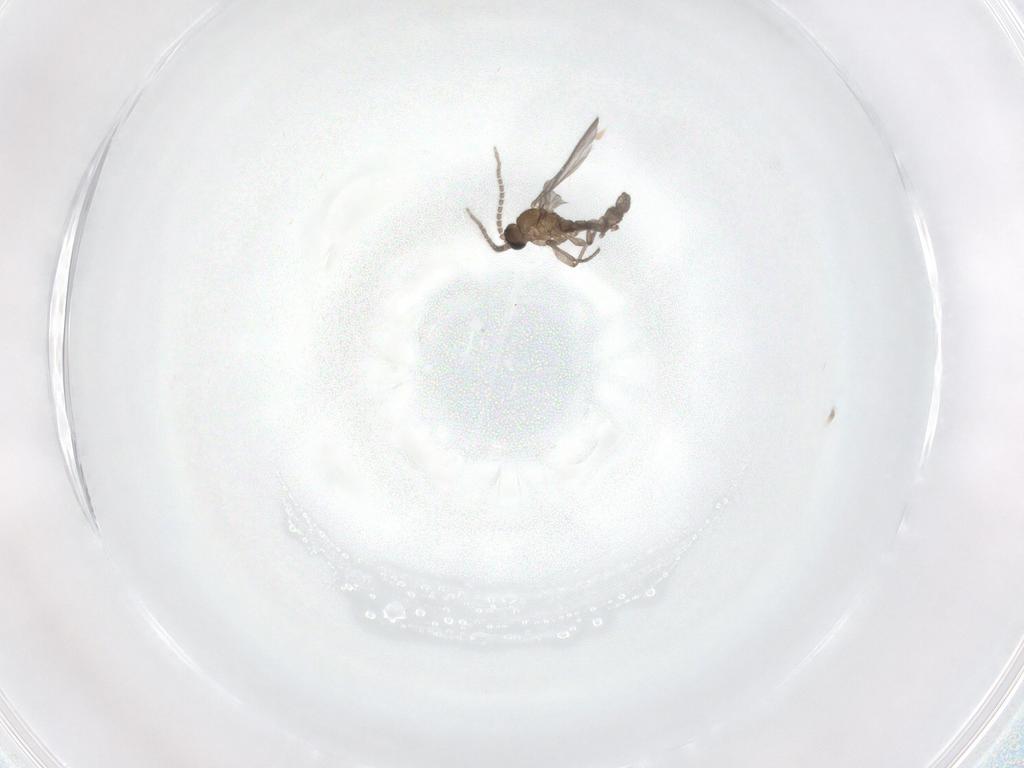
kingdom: Animalia
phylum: Arthropoda
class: Insecta
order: Diptera
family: Sciaridae
